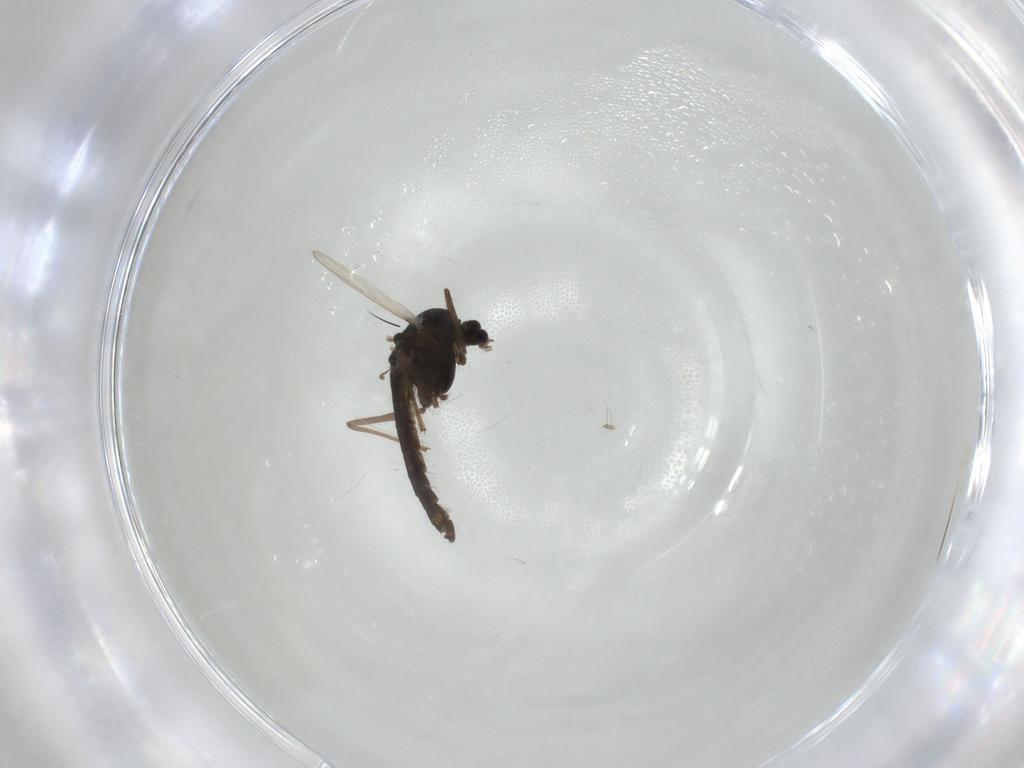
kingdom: Animalia
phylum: Arthropoda
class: Insecta
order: Diptera
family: Chironomidae
